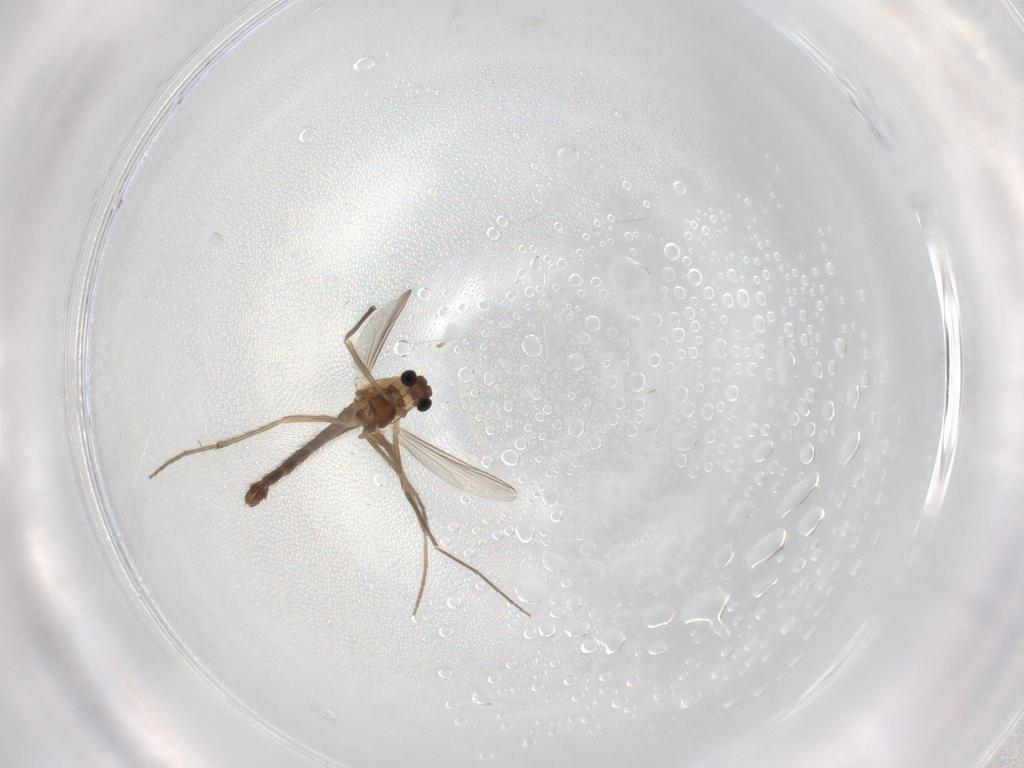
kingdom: Animalia
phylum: Arthropoda
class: Insecta
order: Diptera
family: Chironomidae
